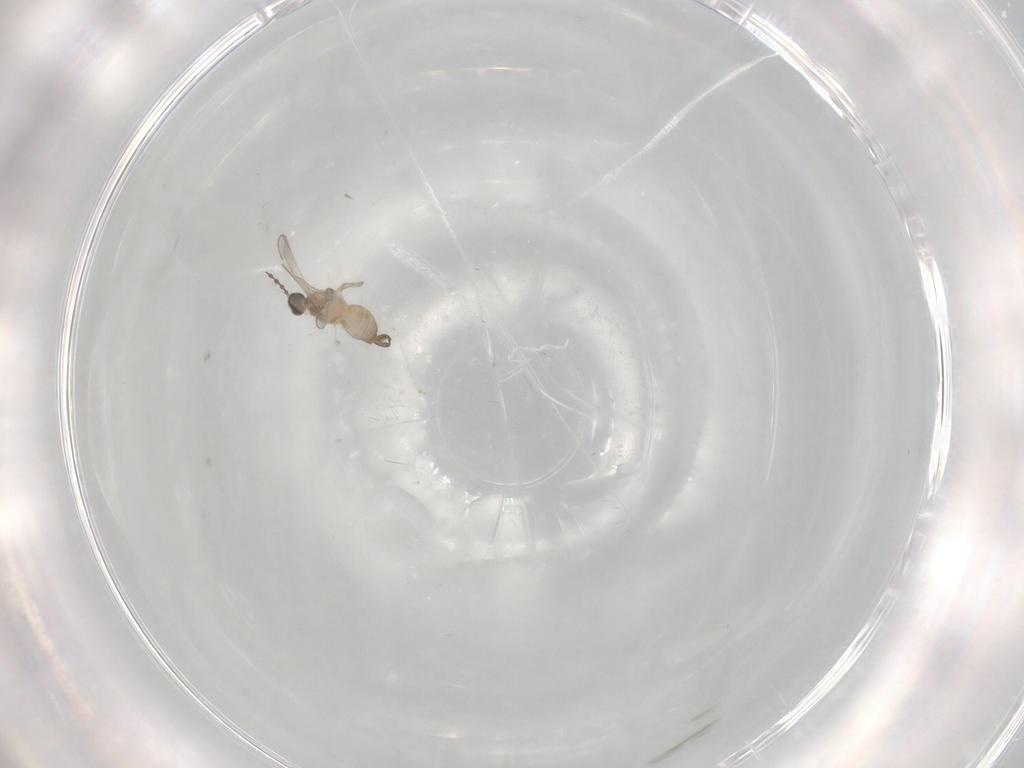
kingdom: Animalia
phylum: Arthropoda
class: Insecta
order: Diptera
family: Cecidomyiidae
